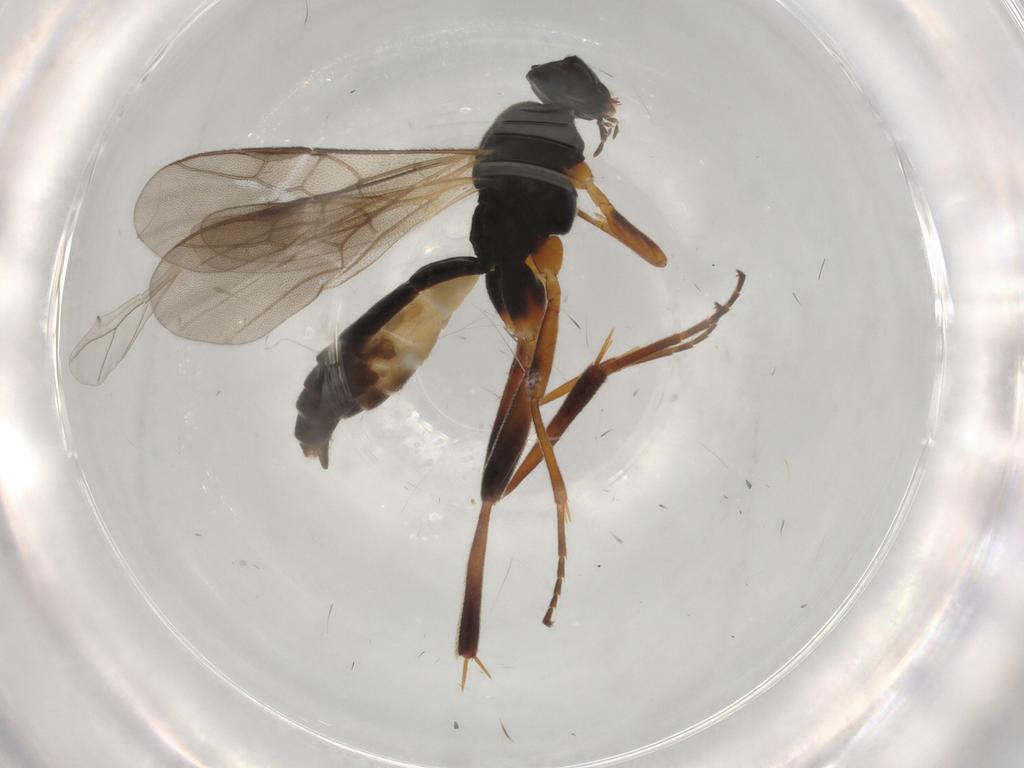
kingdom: Animalia
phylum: Arthropoda
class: Insecta
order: Hymenoptera
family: Braconidae
